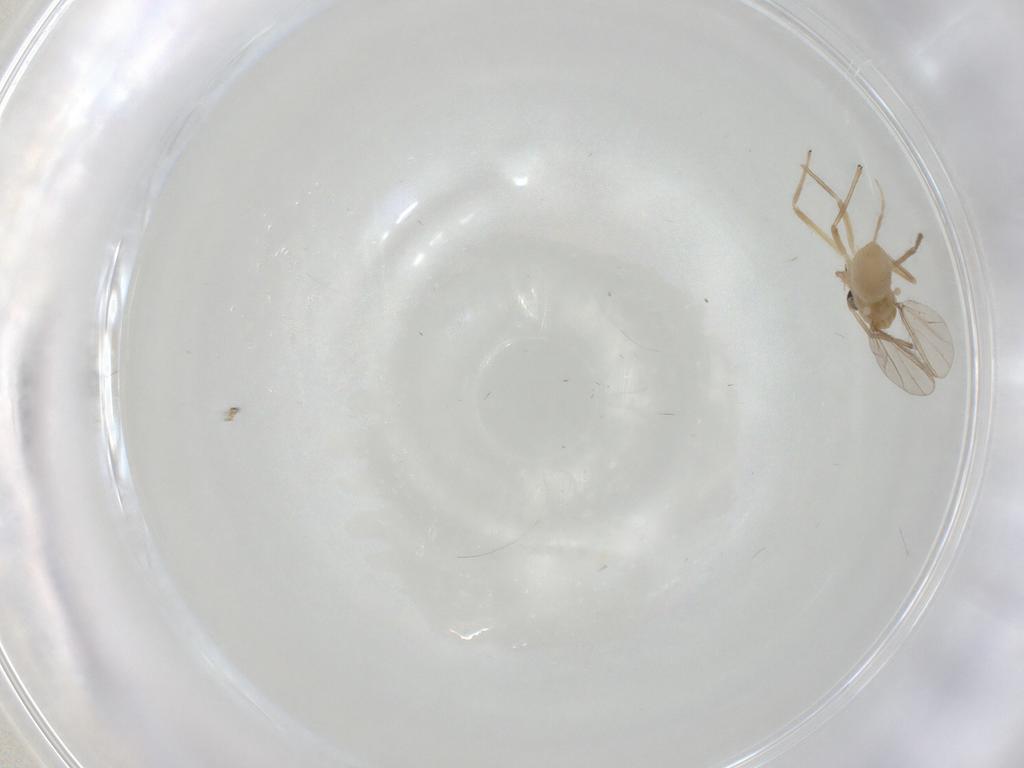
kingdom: Animalia
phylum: Arthropoda
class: Insecta
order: Diptera
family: Chironomidae
